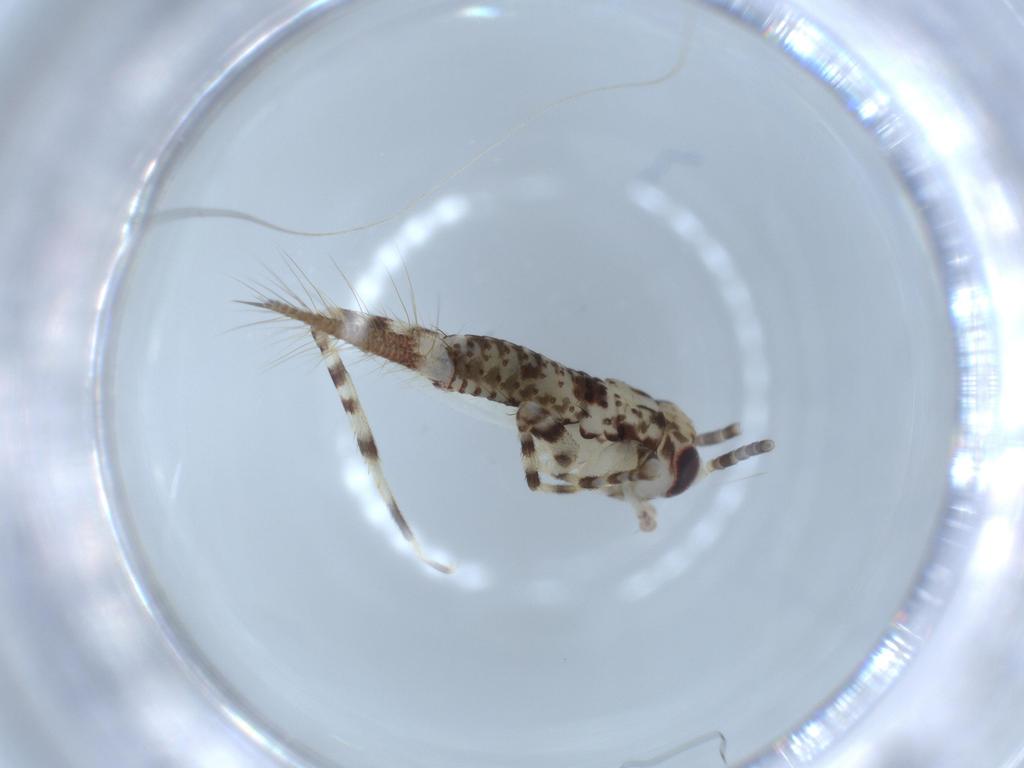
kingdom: Animalia
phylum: Arthropoda
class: Insecta
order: Orthoptera
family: Gryllidae
